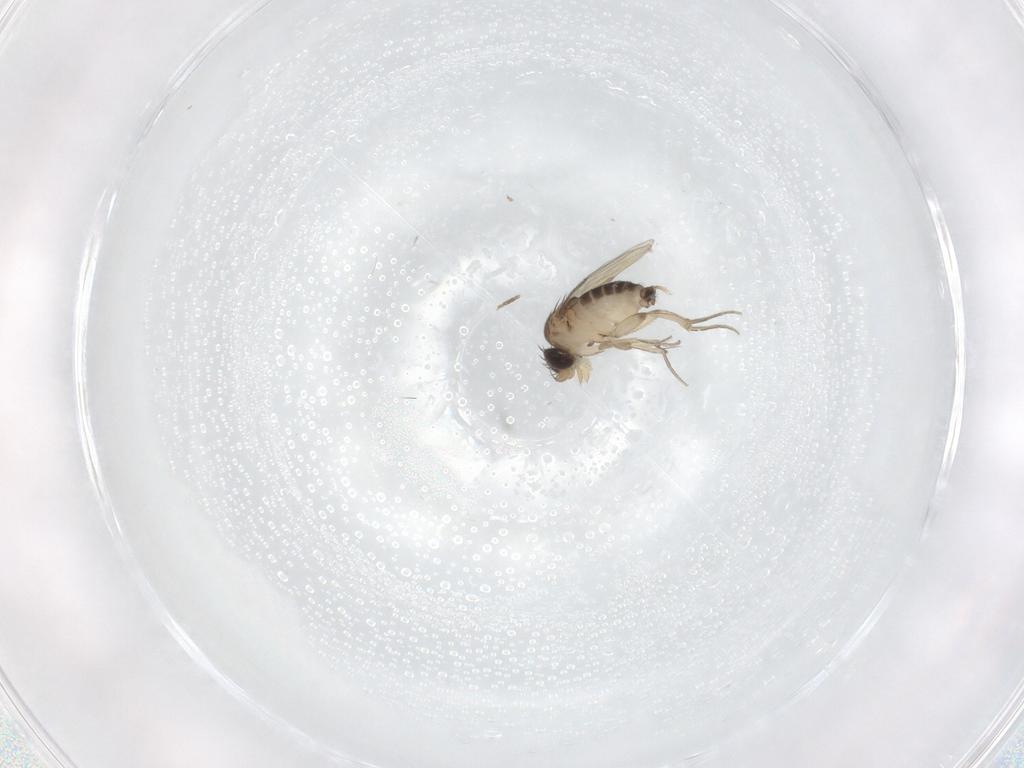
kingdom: Animalia
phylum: Arthropoda
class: Insecta
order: Diptera
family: Phoridae
